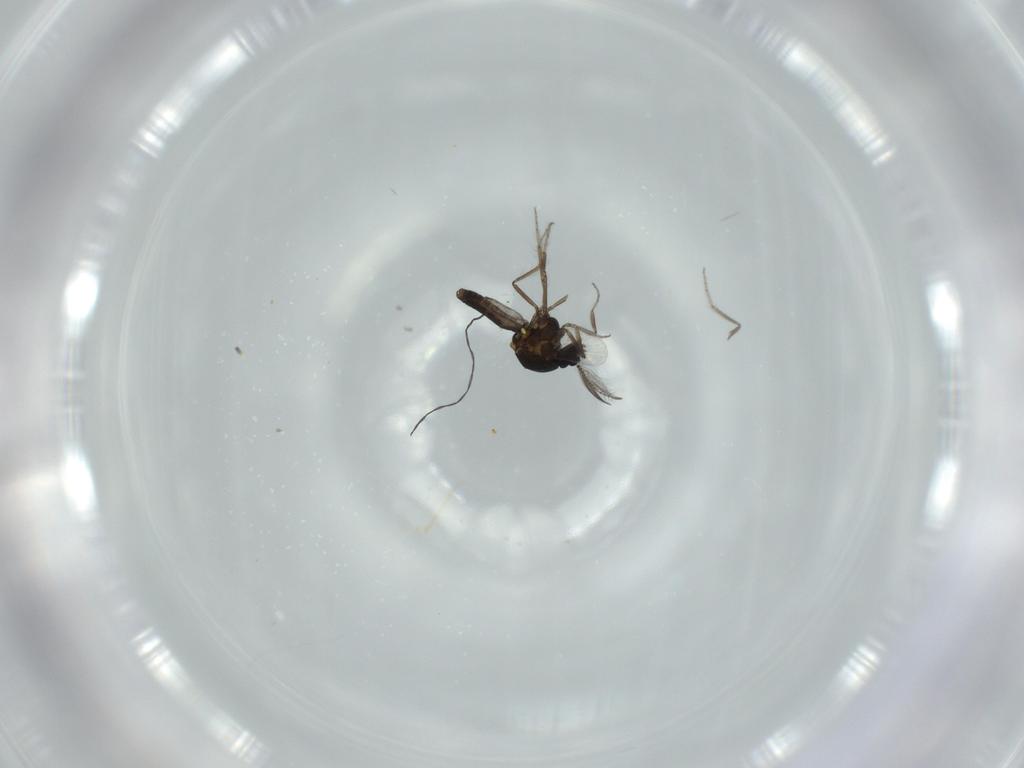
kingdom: Animalia
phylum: Arthropoda
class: Insecta
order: Diptera
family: Cecidomyiidae
